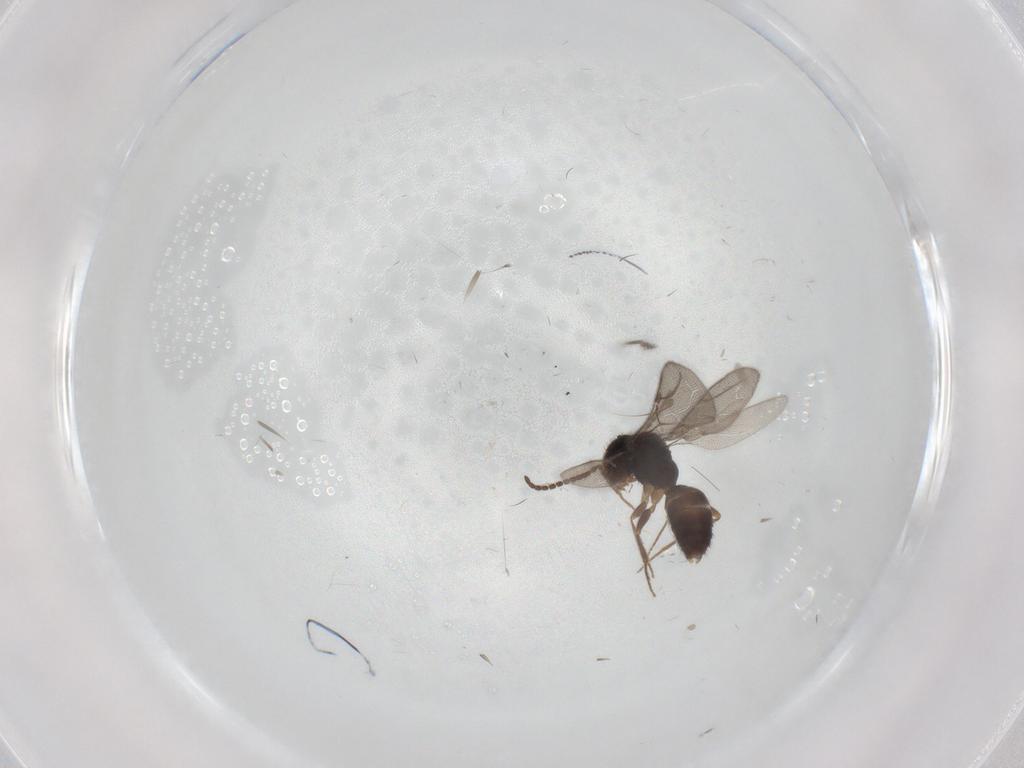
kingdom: Animalia
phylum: Arthropoda
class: Insecta
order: Hymenoptera
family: Bethylidae
